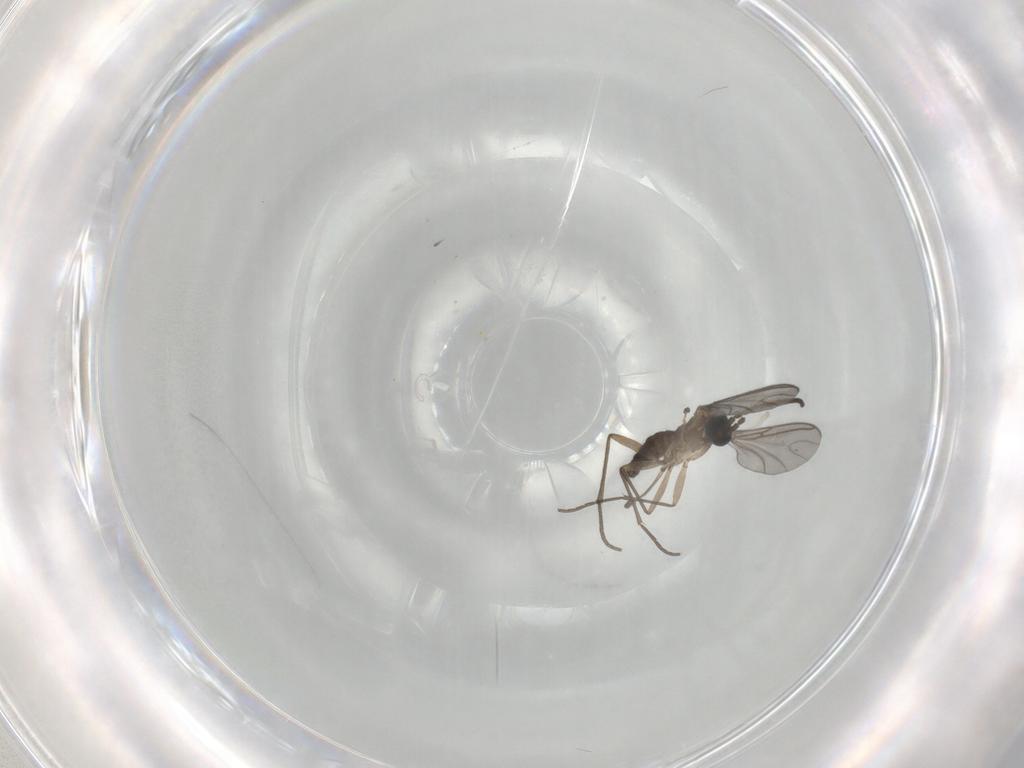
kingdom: Animalia
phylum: Arthropoda
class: Insecta
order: Diptera
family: Sciaridae
